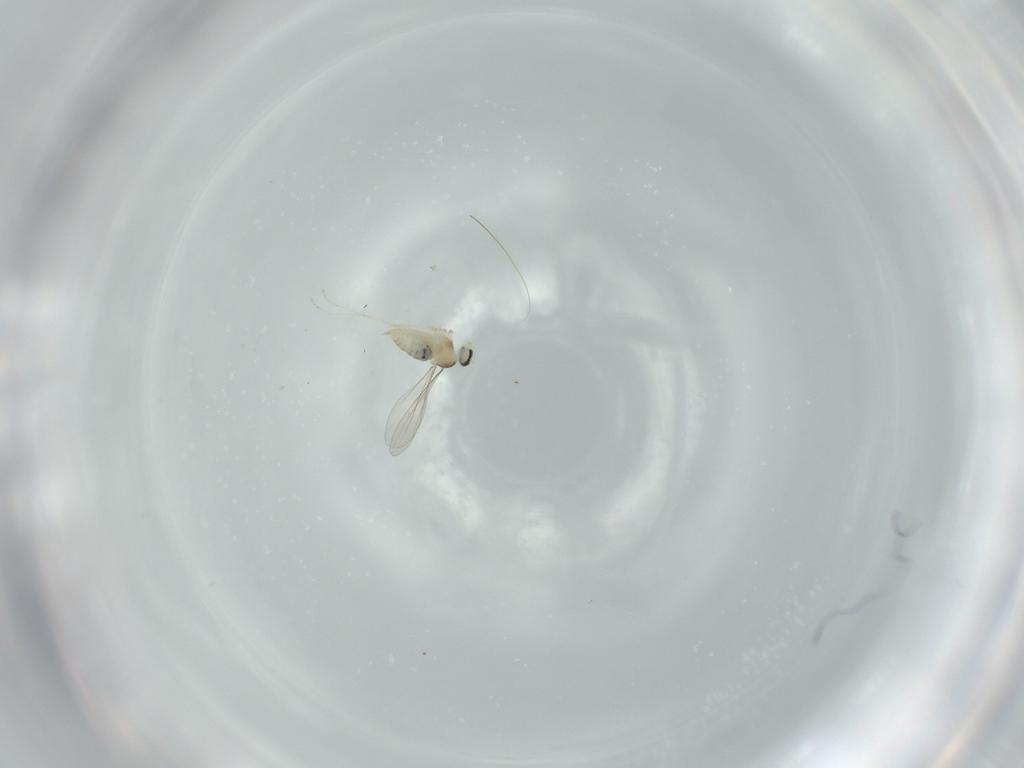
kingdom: Animalia
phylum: Arthropoda
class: Insecta
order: Diptera
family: Cecidomyiidae
